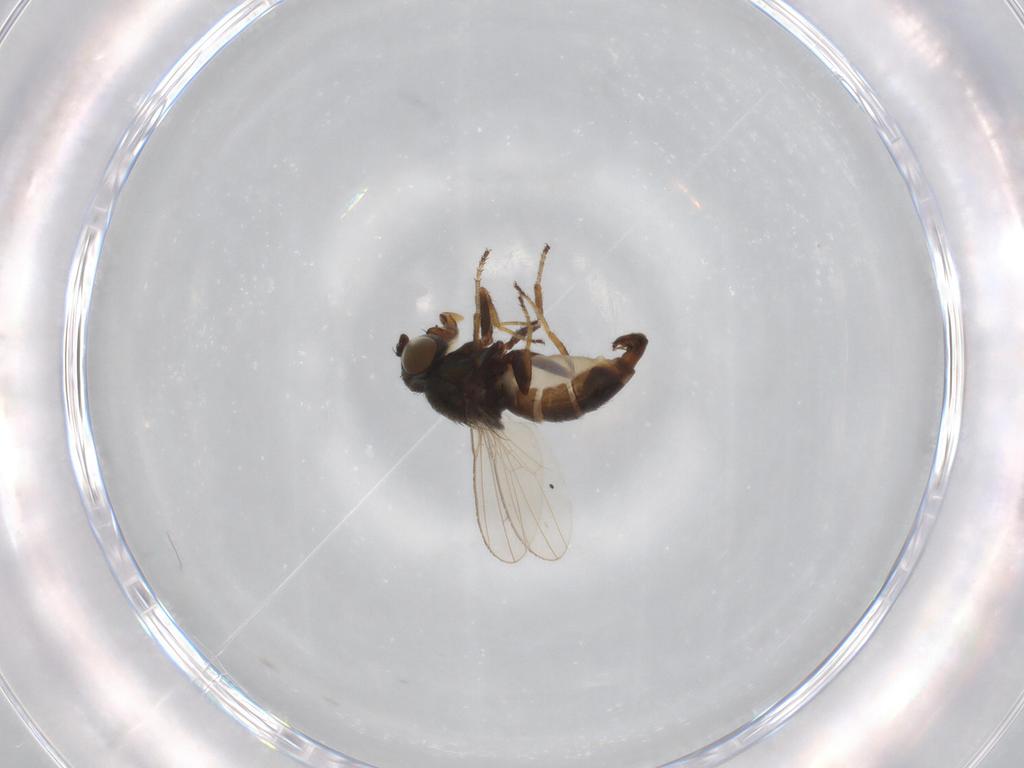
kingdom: Animalia
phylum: Arthropoda
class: Insecta
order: Diptera
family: Ephydridae
